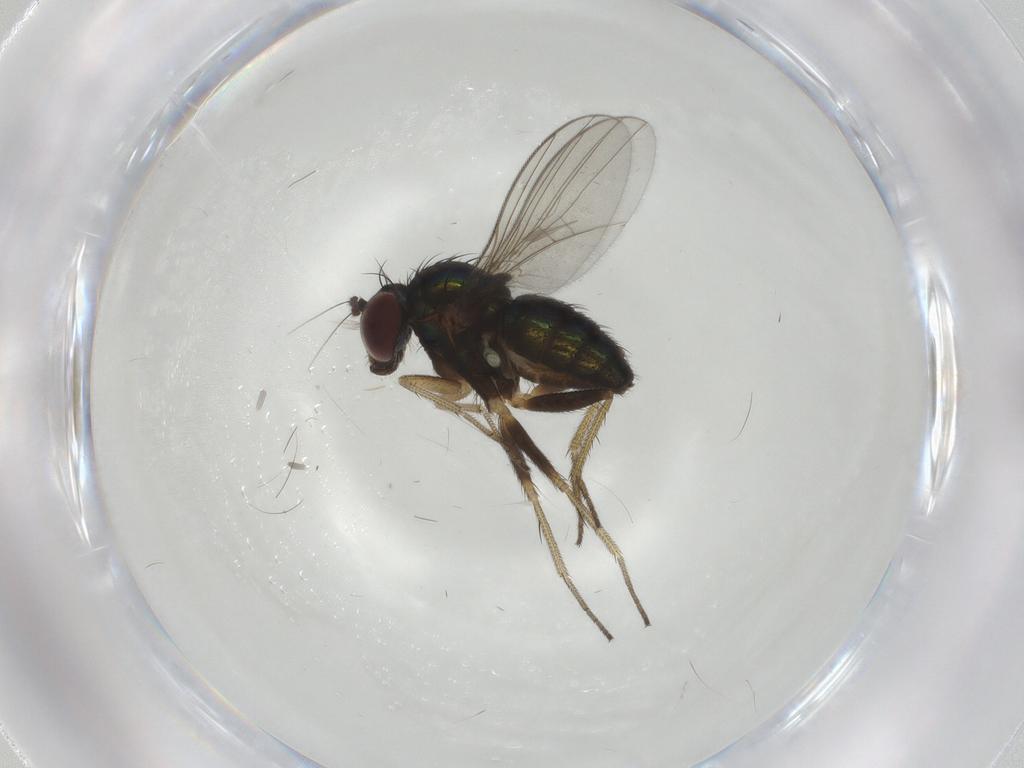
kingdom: Animalia
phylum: Arthropoda
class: Insecta
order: Diptera
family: Dolichopodidae
